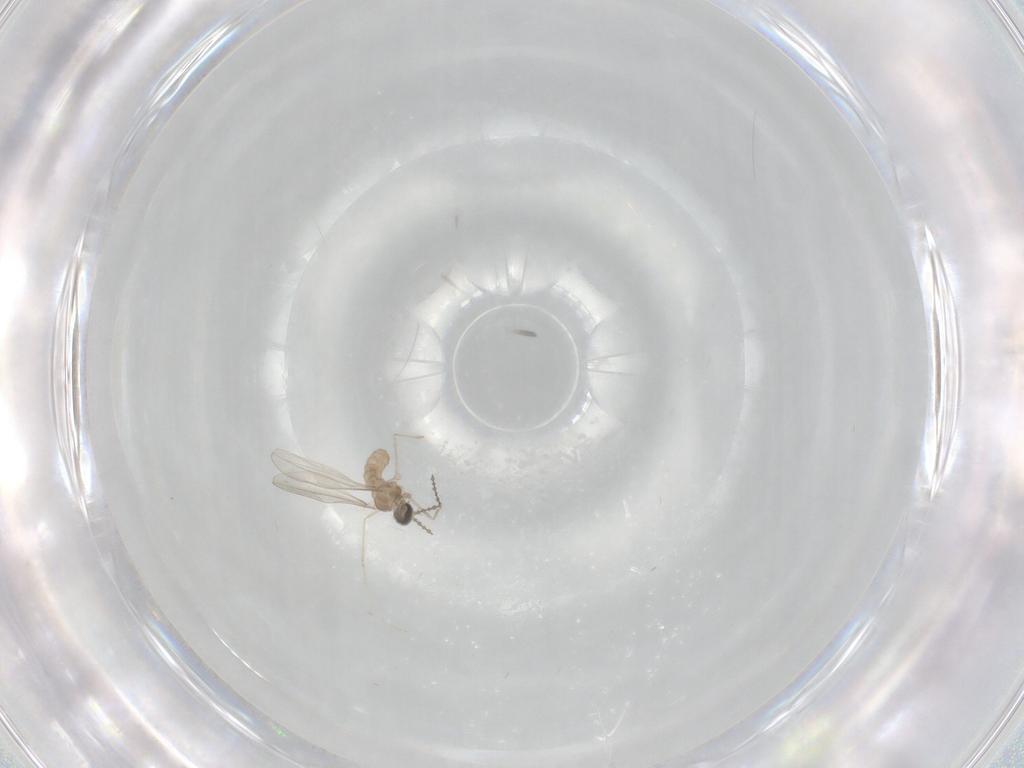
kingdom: Animalia
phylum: Arthropoda
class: Insecta
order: Diptera
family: Cecidomyiidae
